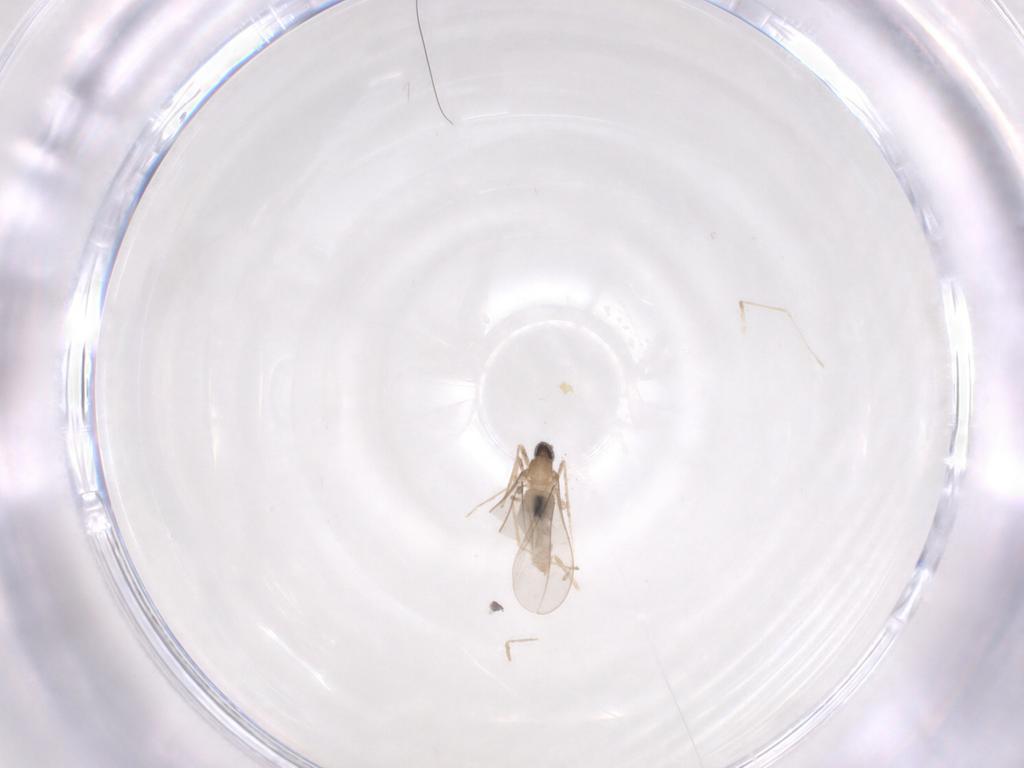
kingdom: Animalia
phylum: Arthropoda
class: Insecta
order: Diptera
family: Cecidomyiidae
